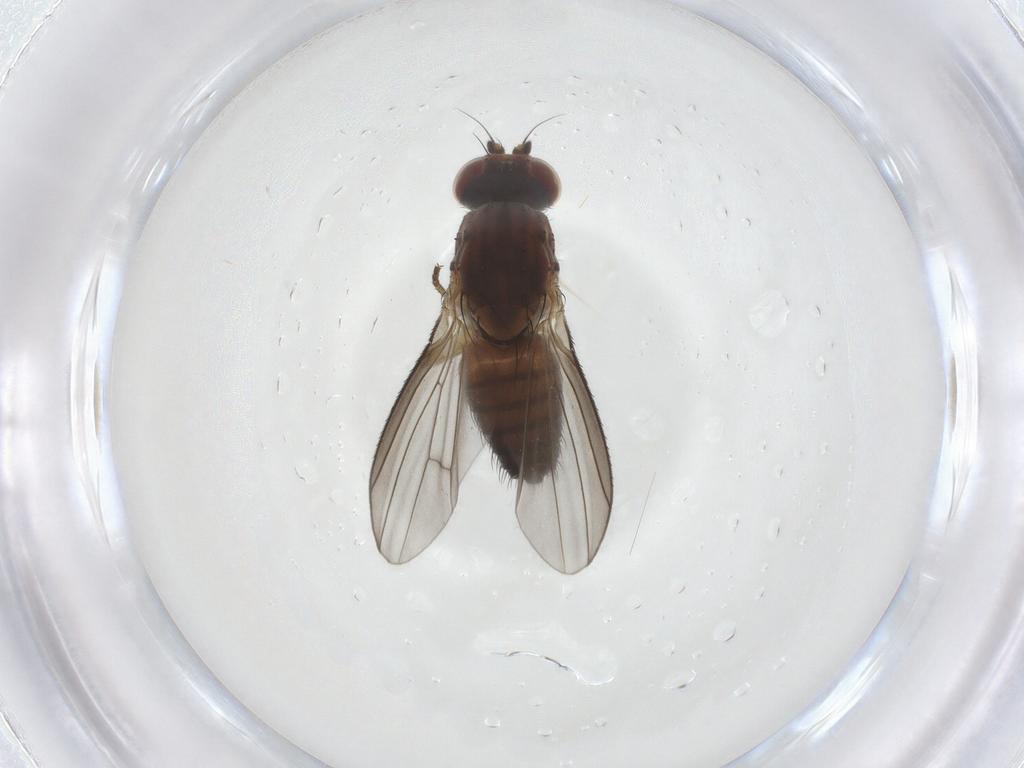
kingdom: Animalia
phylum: Arthropoda
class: Insecta
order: Diptera
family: Heleomyzidae
